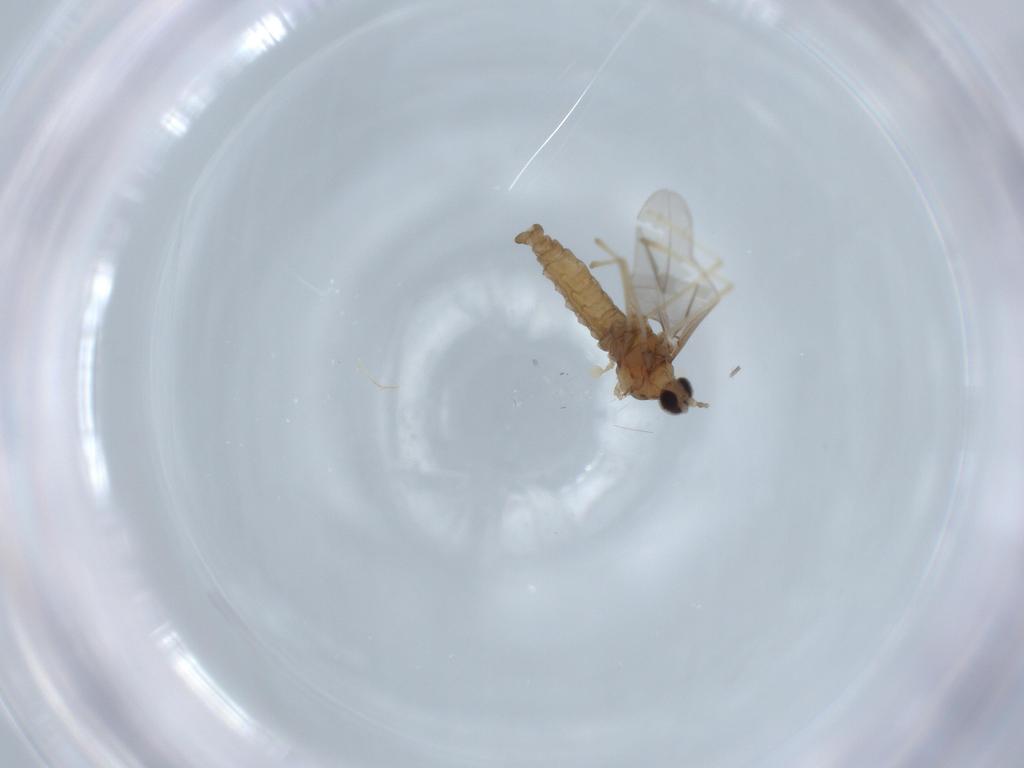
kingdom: Animalia
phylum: Arthropoda
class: Insecta
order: Diptera
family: Cecidomyiidae
